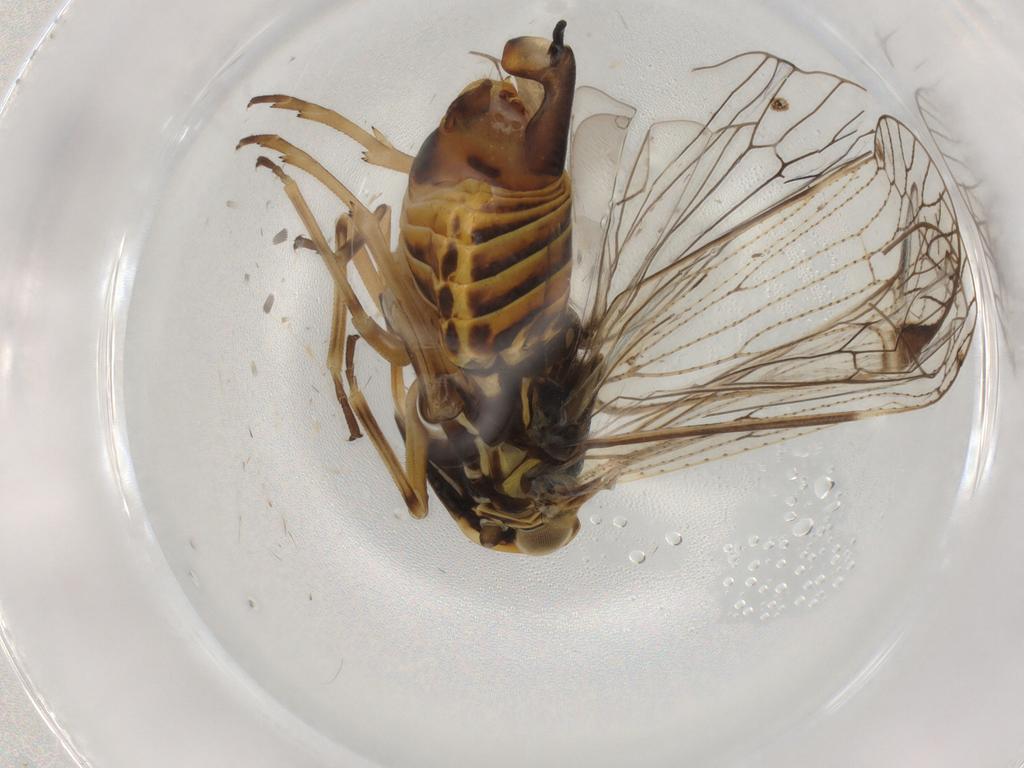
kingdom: Animalia
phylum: Arthropoda
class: Insecta
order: Hemiptera
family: Cixiidae
